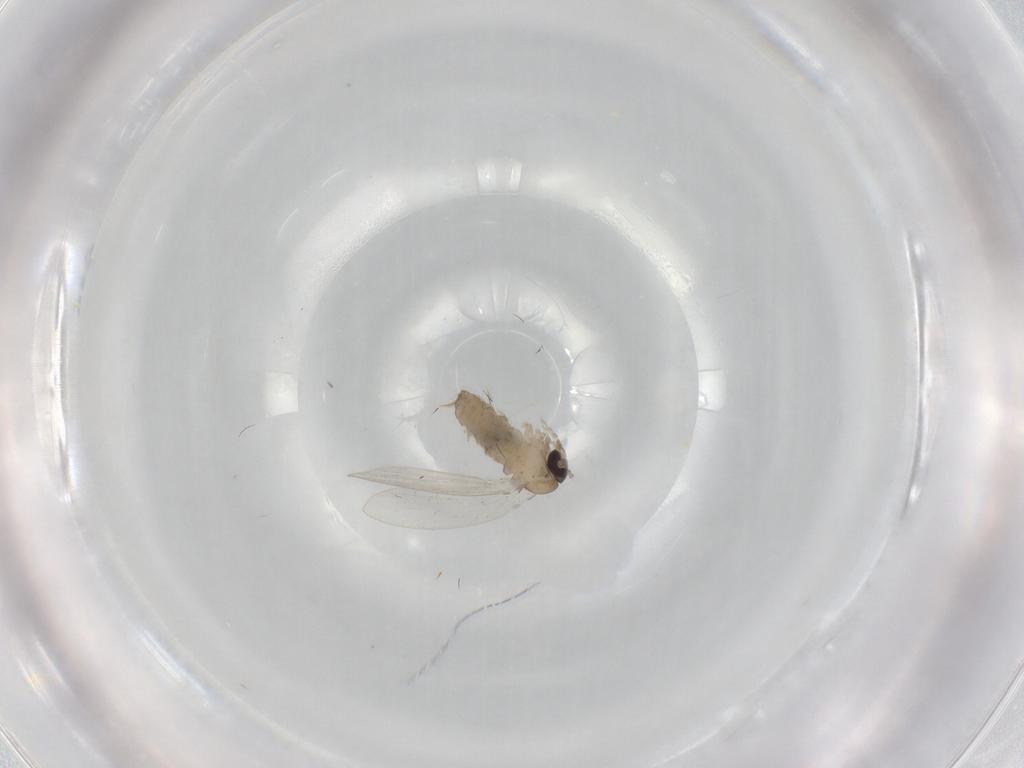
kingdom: Animalia
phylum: Arthropoda
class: Insecta
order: Diptera
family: Psychodidae
